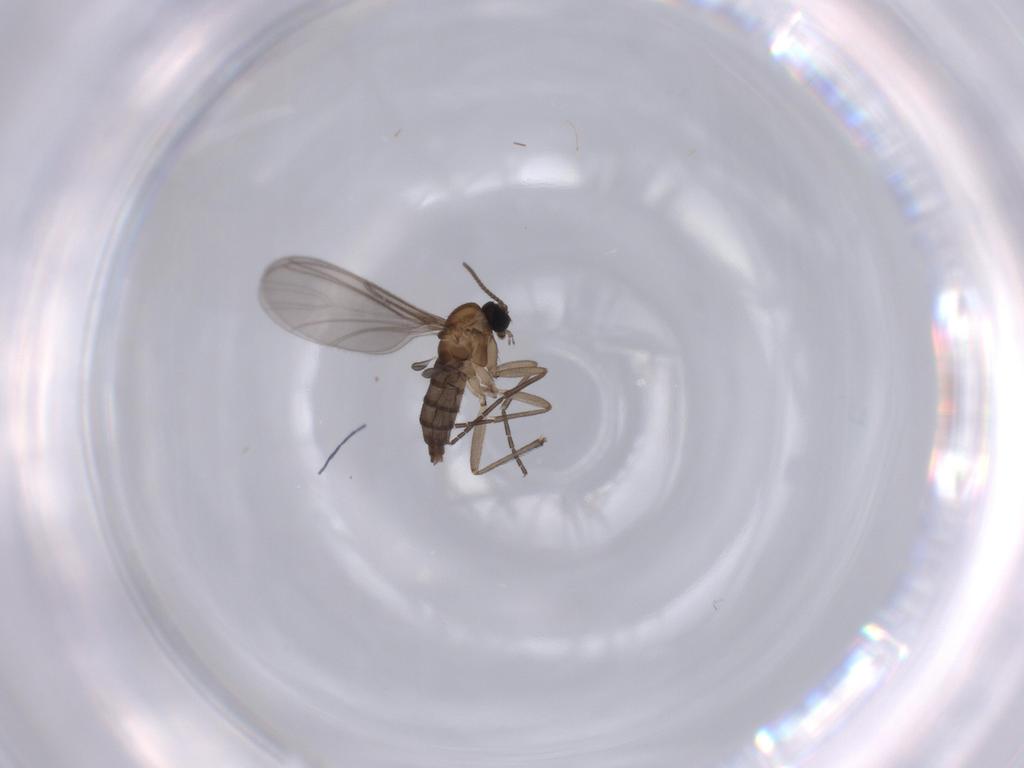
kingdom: Animalia
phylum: Arthropoda
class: Insecta
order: Diptera
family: Sciaridae
